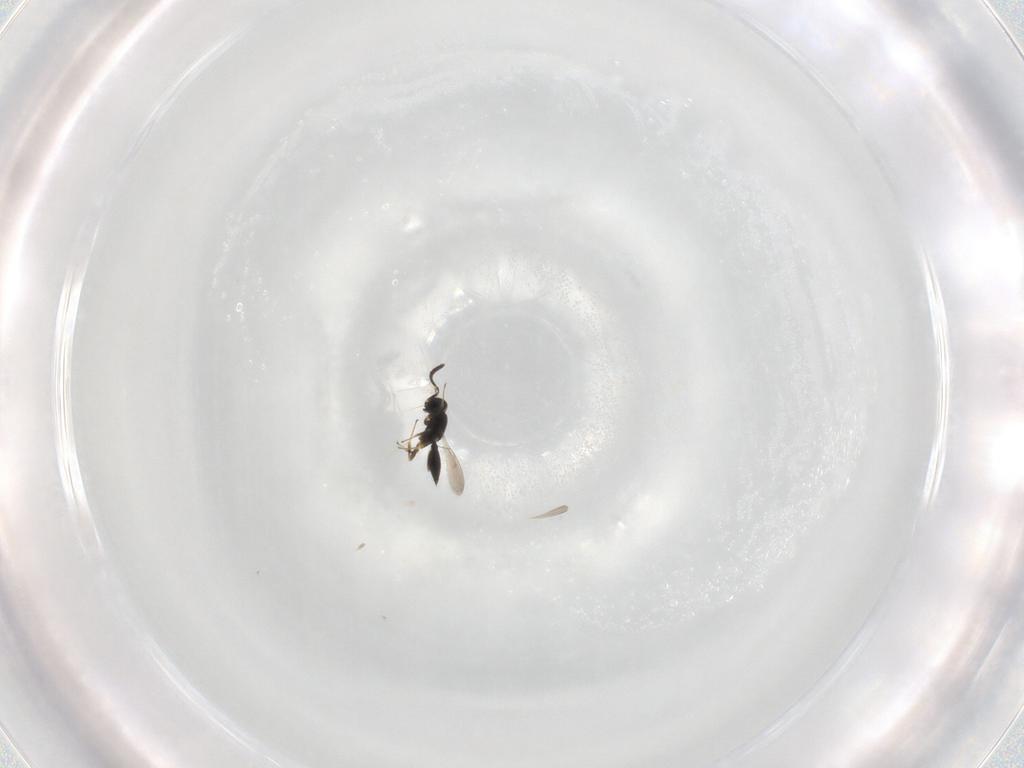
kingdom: Animalia
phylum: Arthropoda
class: Insecta
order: Hymenoptera
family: Scelionidae
